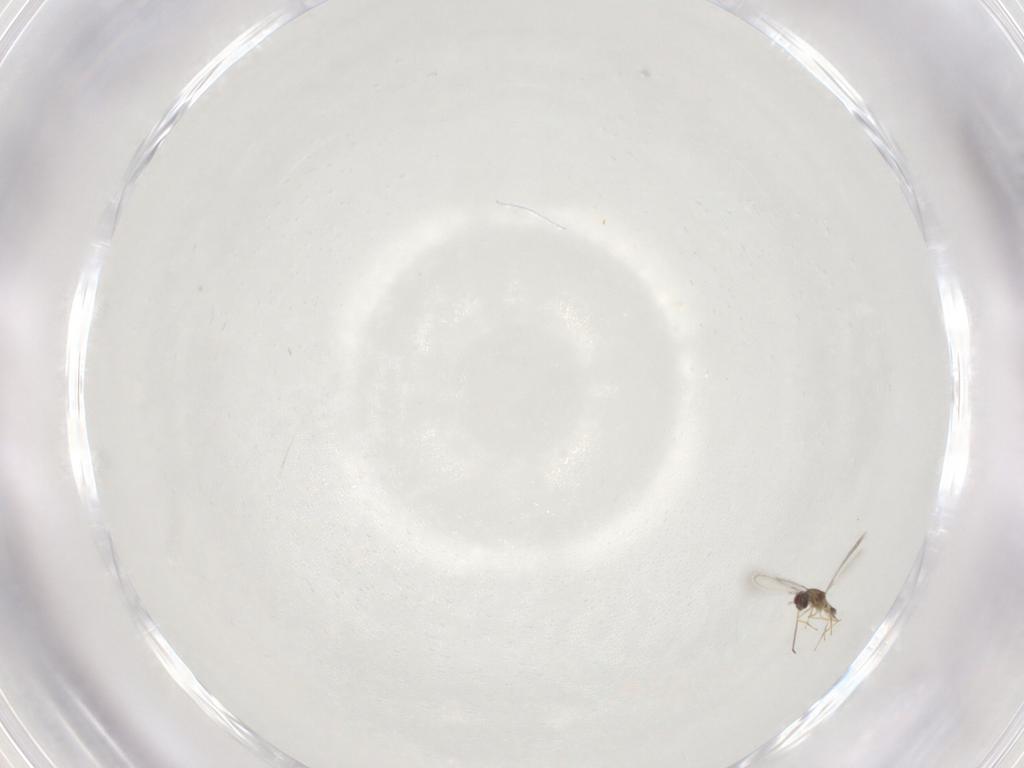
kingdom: Animalia
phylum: Arthropoda
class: Insecta
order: Hymenoptera
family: Mymaridae
